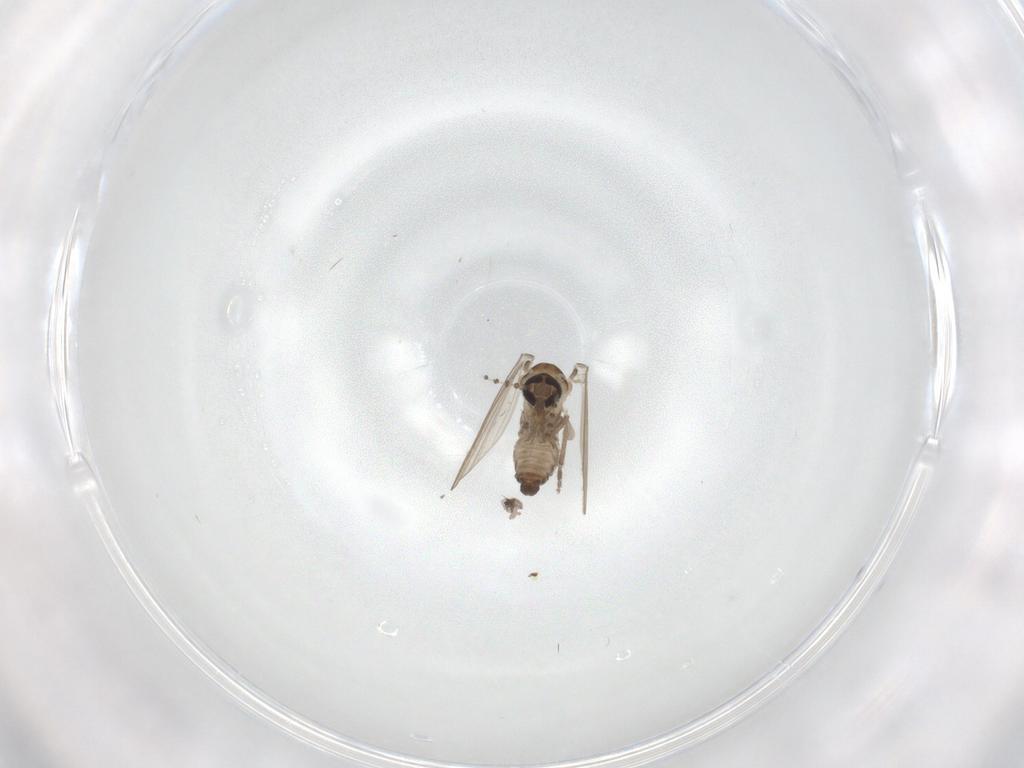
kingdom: Animalia
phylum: Arthropoda
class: Insecta
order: Diptera
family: Psychodidae
